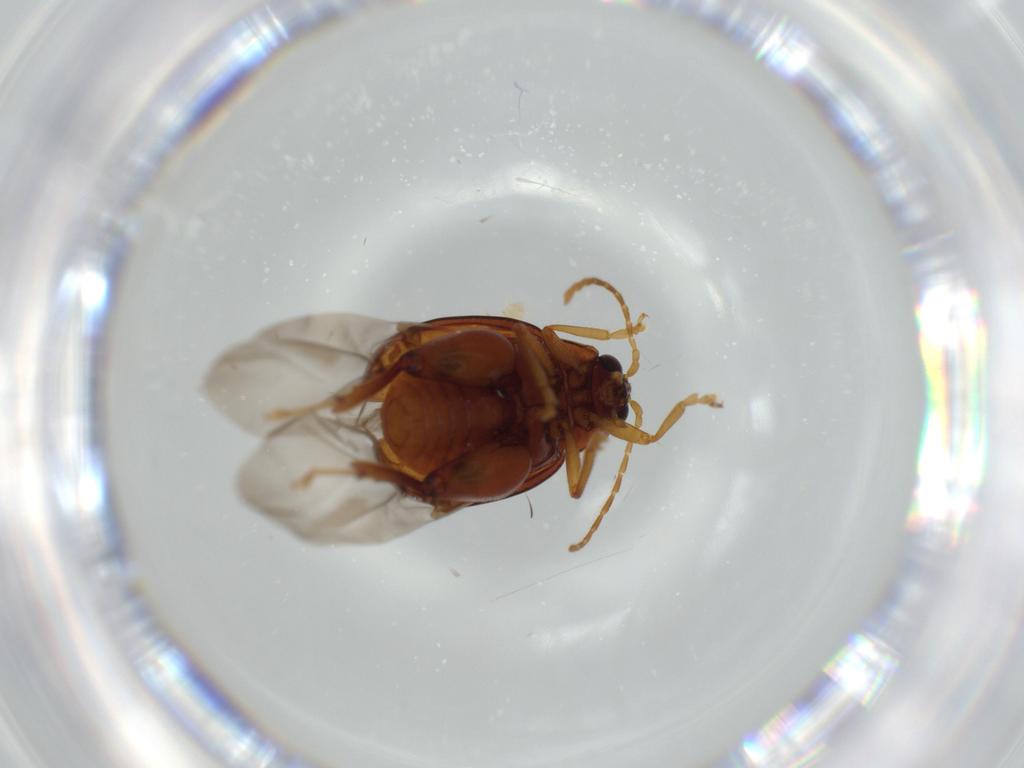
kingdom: Animalia
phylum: Arthropoda
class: Insecta
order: Coleoptera
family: Chrysomelidae
